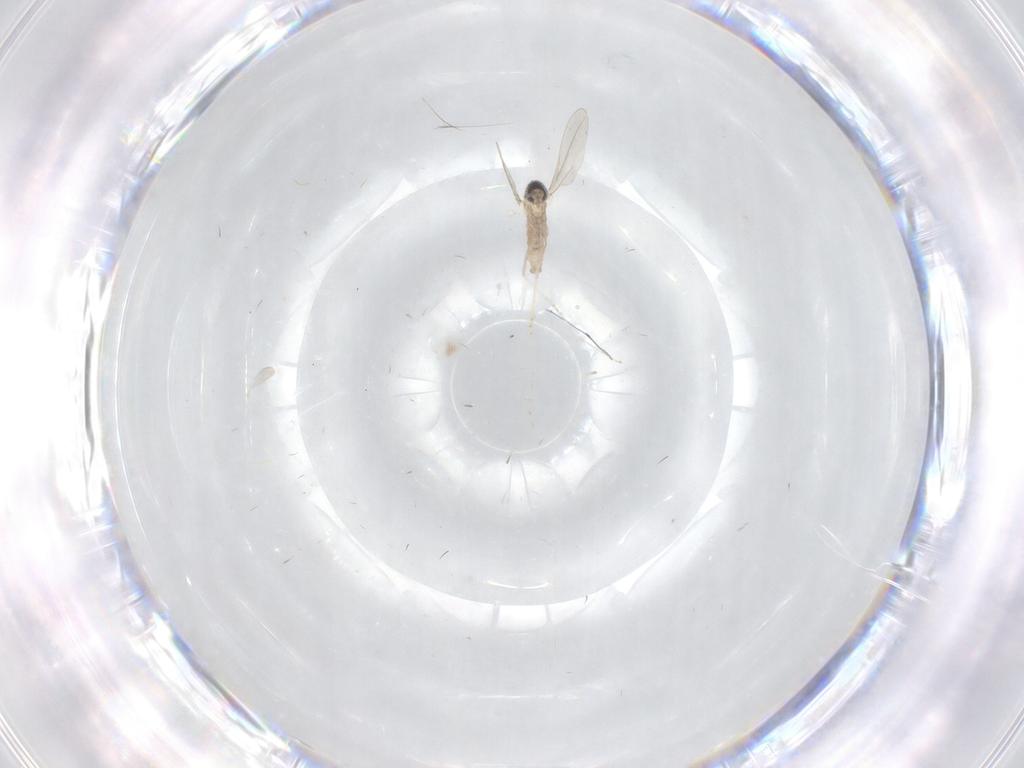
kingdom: Animalia
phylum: Arthropoda
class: Insecta
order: Diptera
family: Cecidomyiidae
